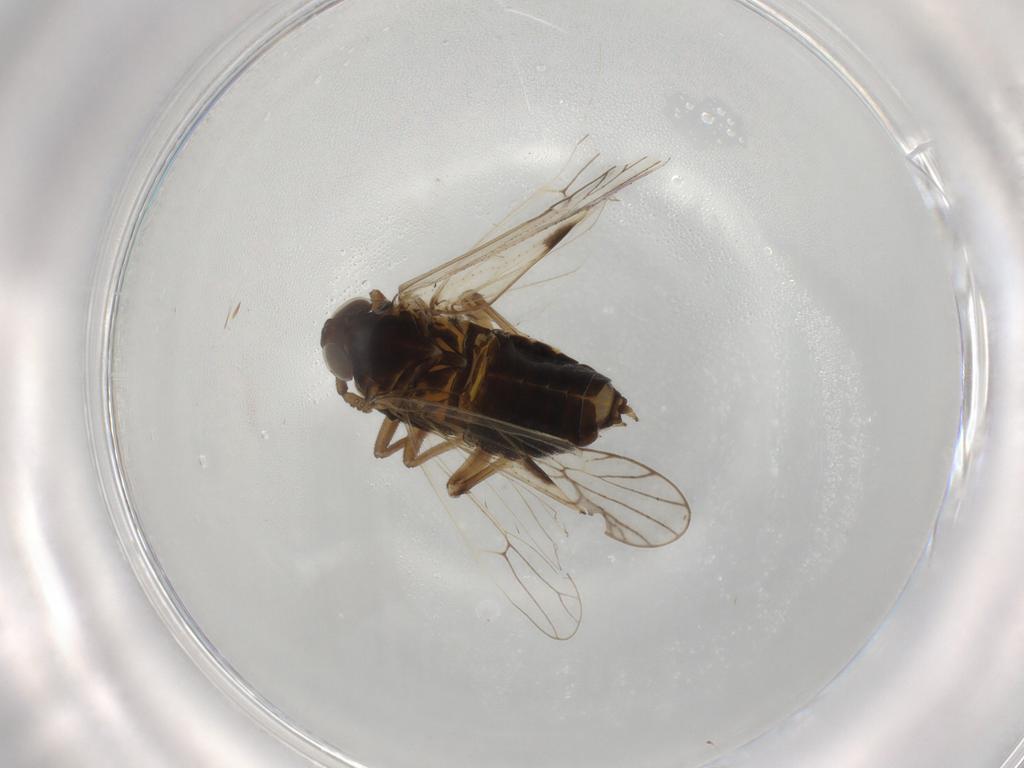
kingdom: Animalia
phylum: Arthropoda
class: Insecta
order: Hemiptera
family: Delphacidae
